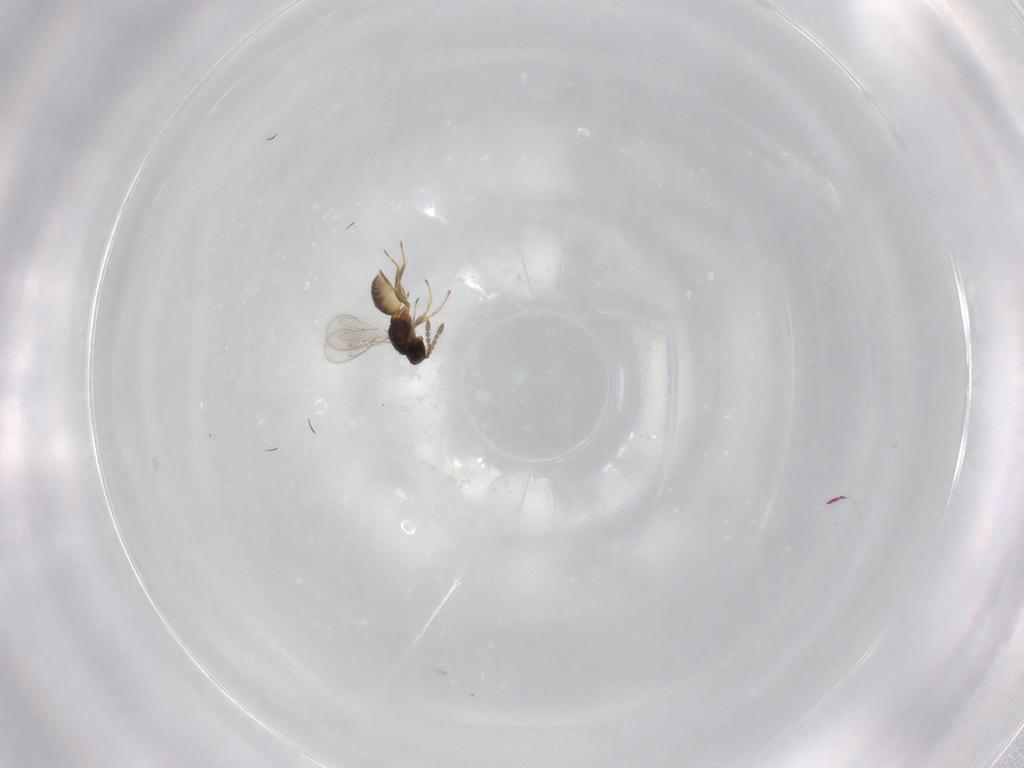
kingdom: Animalia
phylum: Arthropoda
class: Insecta
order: Hymenoptera
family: Moranilidae
